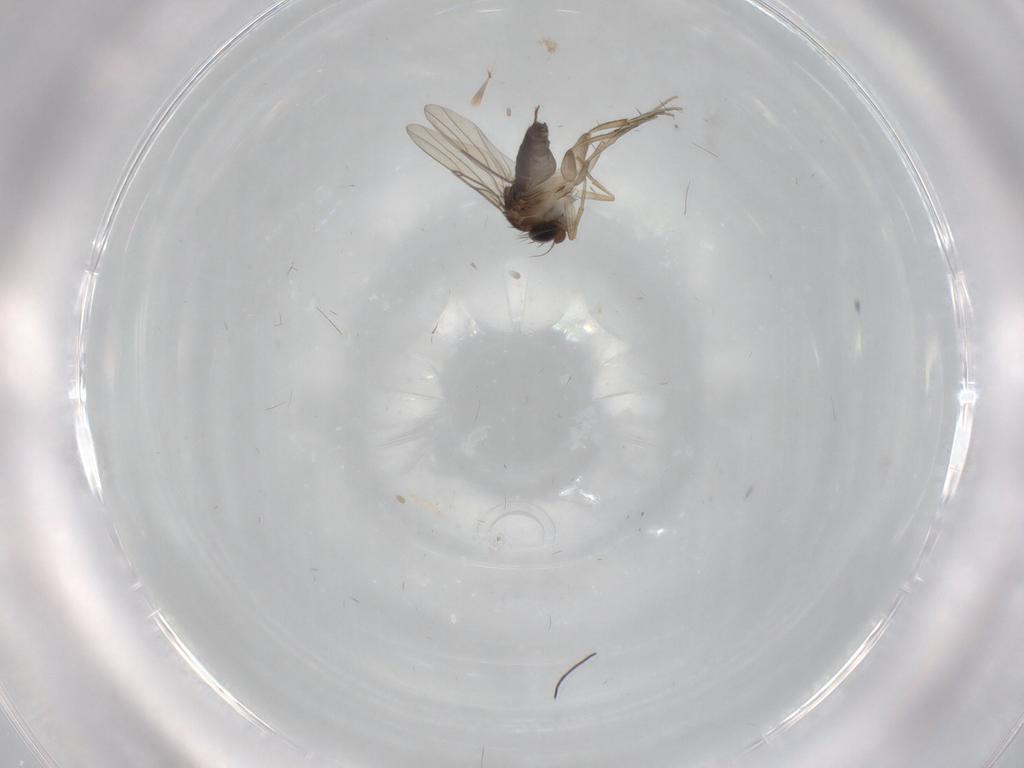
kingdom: Animalia
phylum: Arthropoda
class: Insecta
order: Diptera
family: Phoridae
